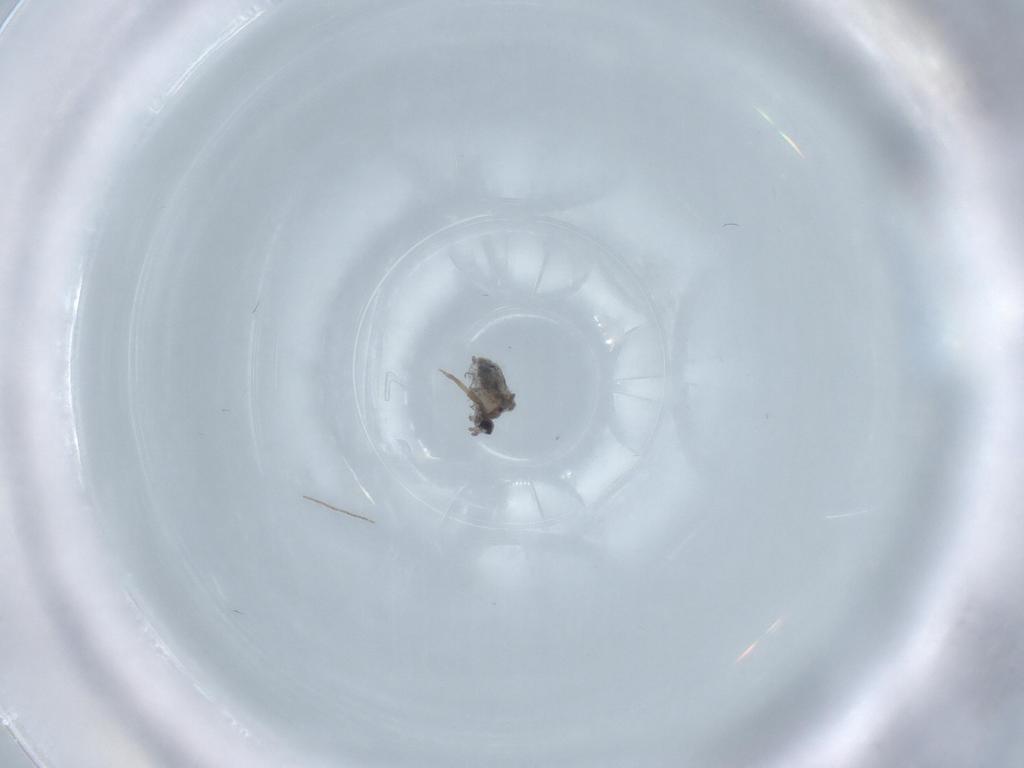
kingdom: Animalia
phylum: Arthropoda
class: Insecta
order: Diptera
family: Cecidomyiidae
